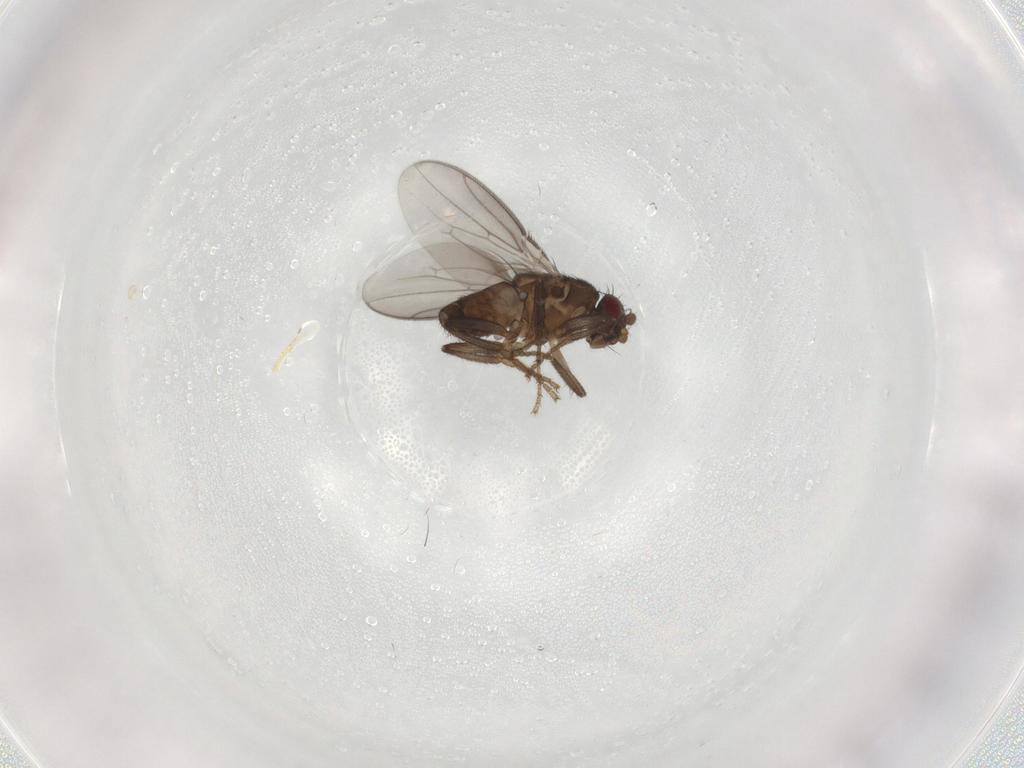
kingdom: Animalia
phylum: Arthropoda
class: Insecta
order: Diptera
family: Sphaeroceridae
